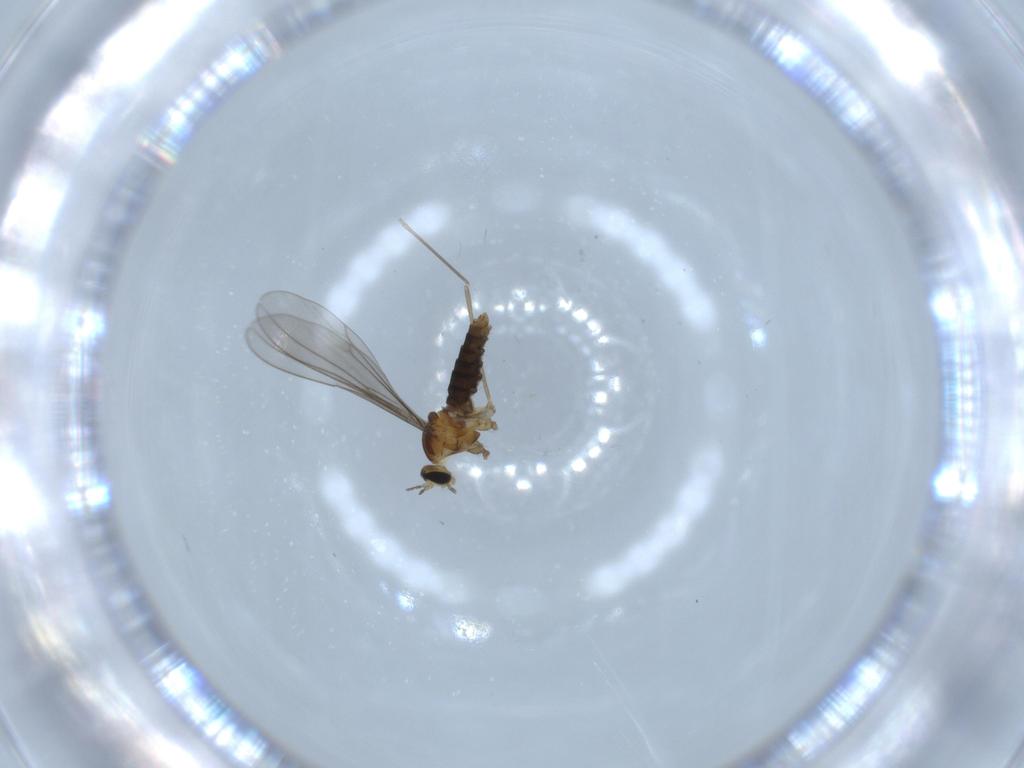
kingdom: Animalia
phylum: Arthropoda
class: Insecta
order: Diptera
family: Cecidomyiidae
